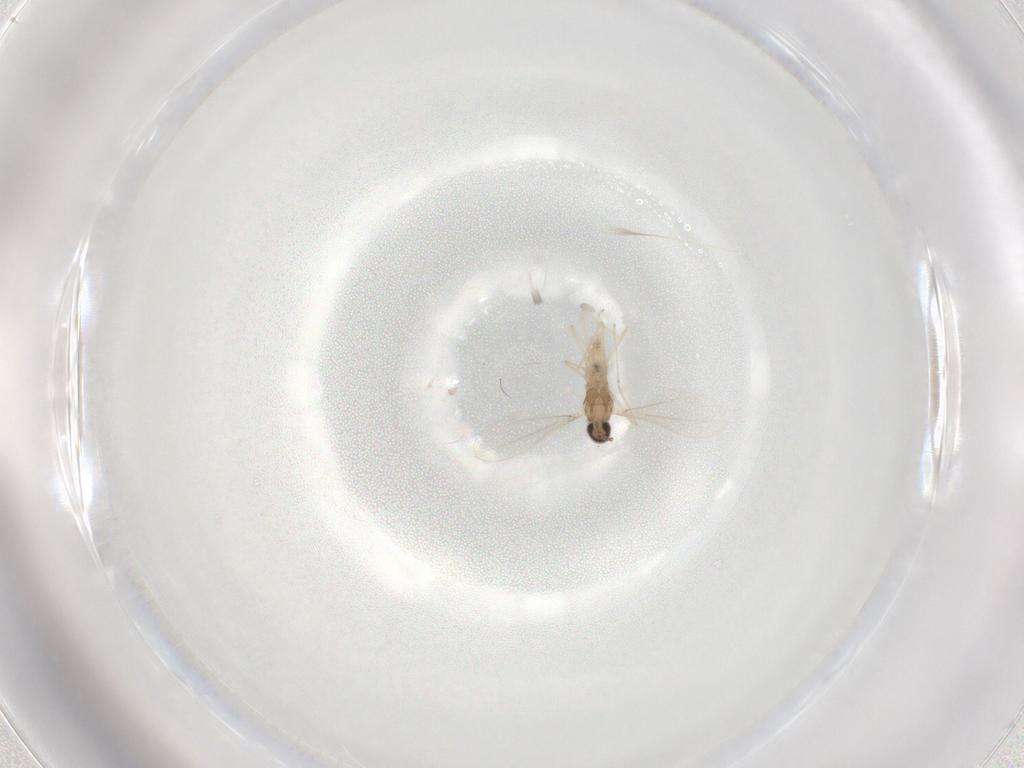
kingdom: Animalia
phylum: Arthropoda
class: Insecta
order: Diptera
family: Chloropidae
